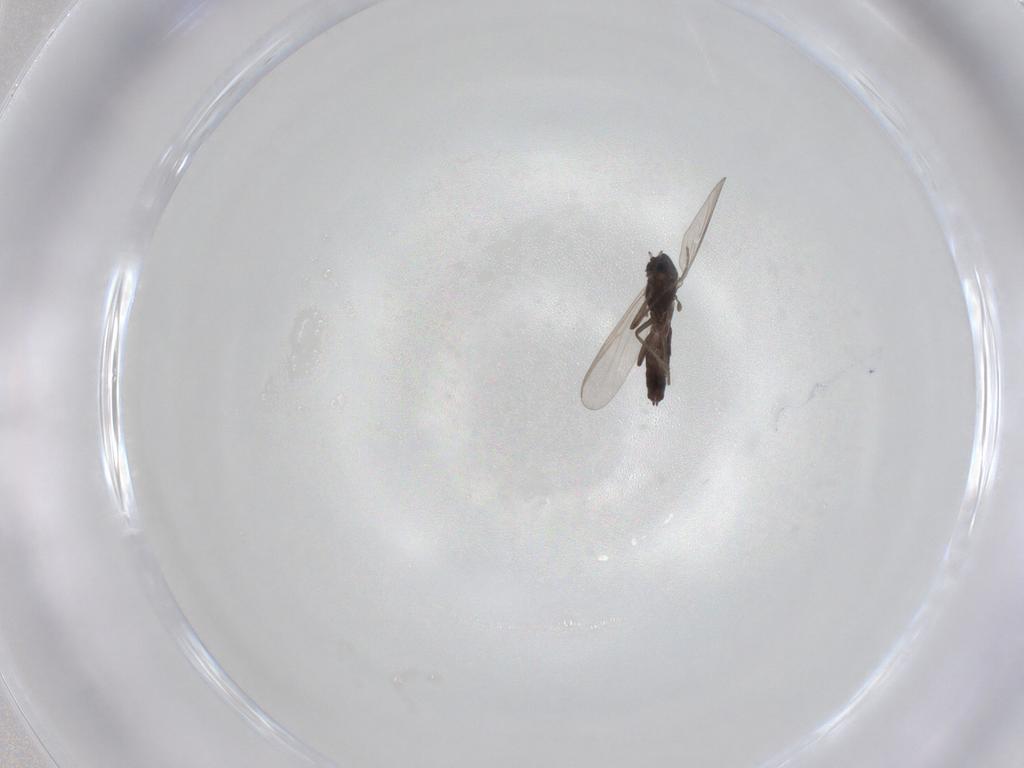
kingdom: Animalia
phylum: Arthropoda
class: Insecta
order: Diptera
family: Chironomidae
